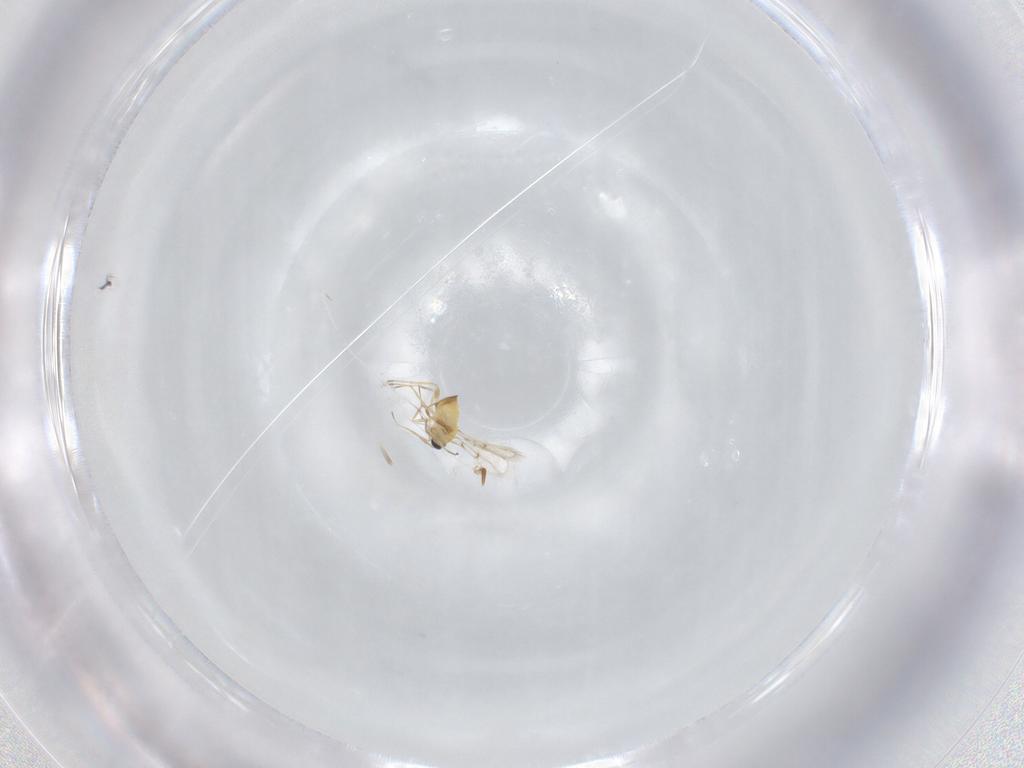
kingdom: Animalia
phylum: Arthropoda
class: Insecta
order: Hymenoptera
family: Formicidae
